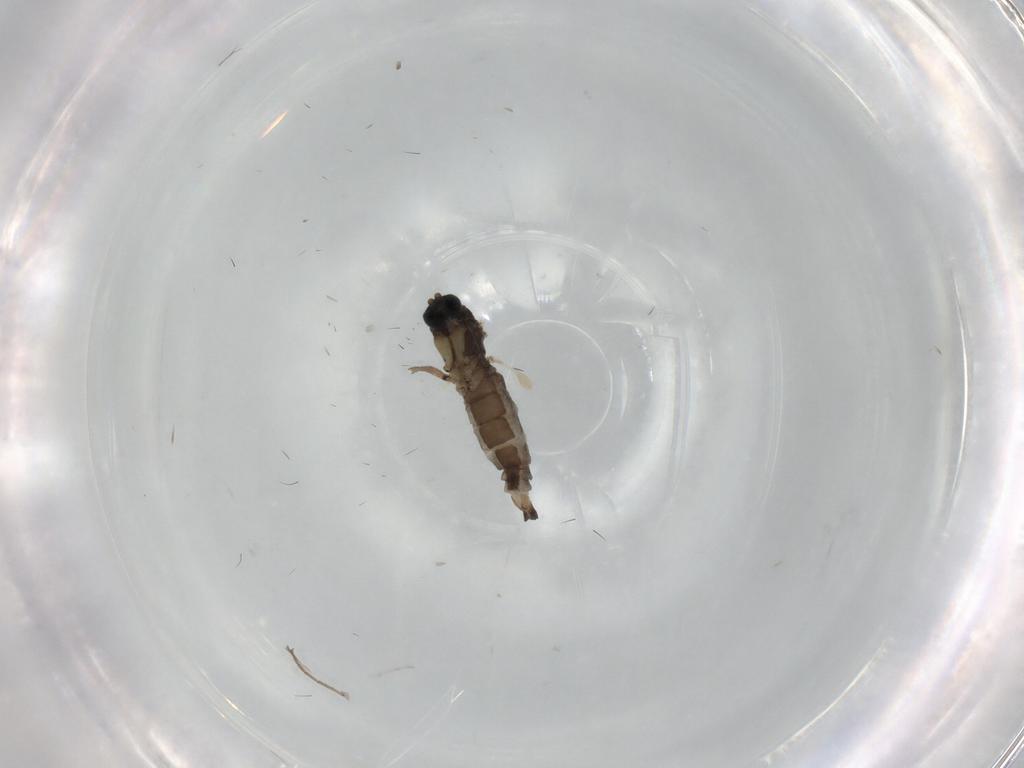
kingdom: Animalia
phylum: Arthropoda
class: Insecta
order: Diptera
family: Sciaridae
